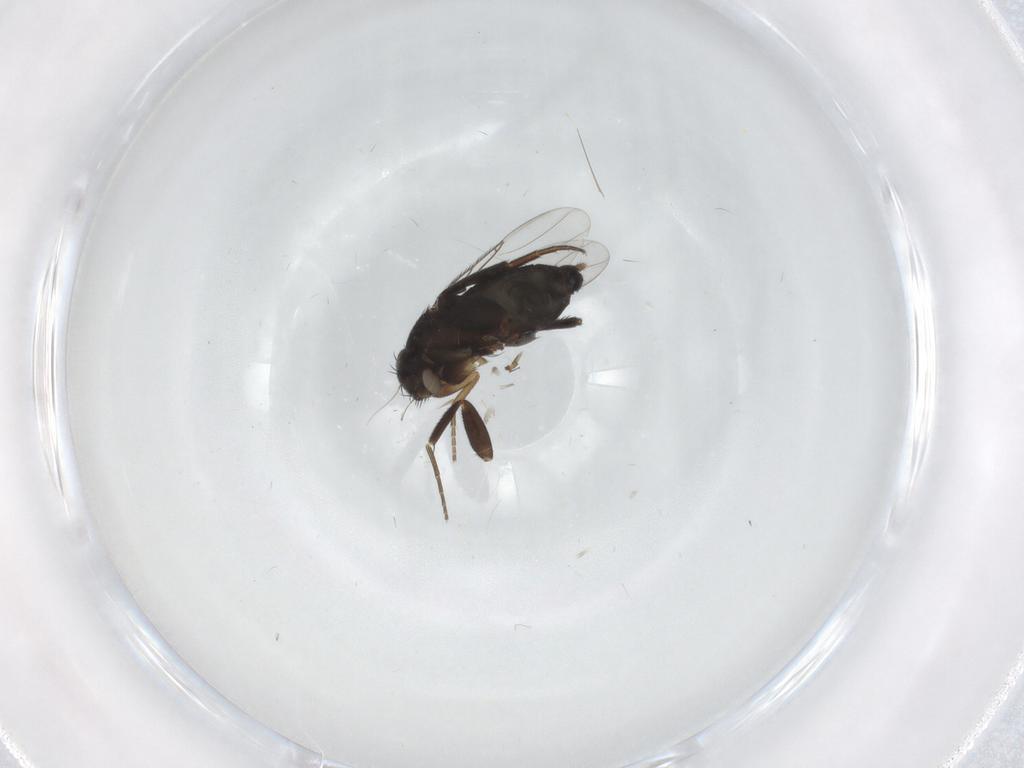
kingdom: Animalia
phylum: Arthropoda
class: Insecta
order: Diptera
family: Phoridae
